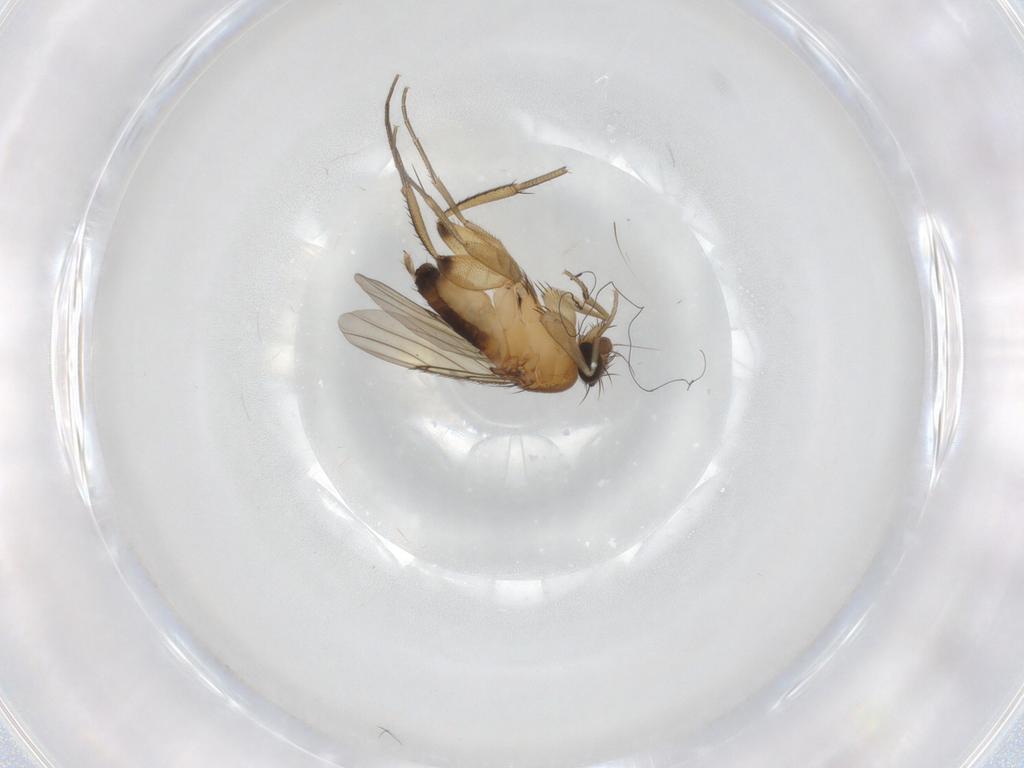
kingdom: Animalia
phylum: Arthropoda
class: Insecta
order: Diptera
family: Phoridae
